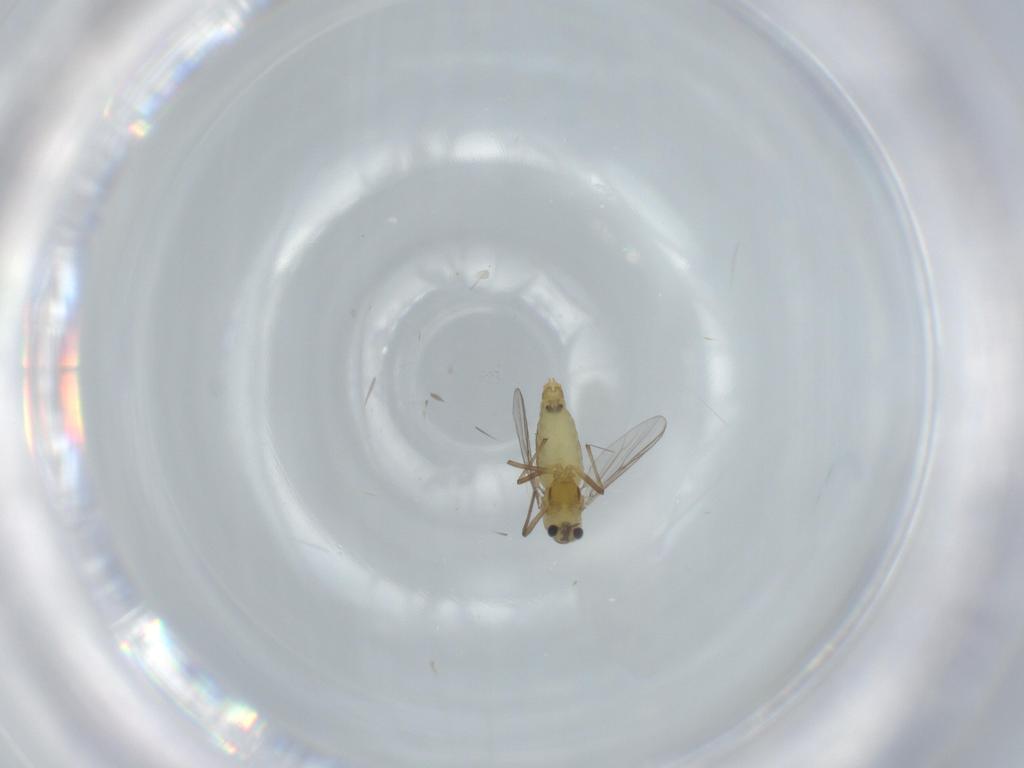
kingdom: Animalia
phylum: Arthropoda
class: Insecta
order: Diptera
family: Chironomidae
